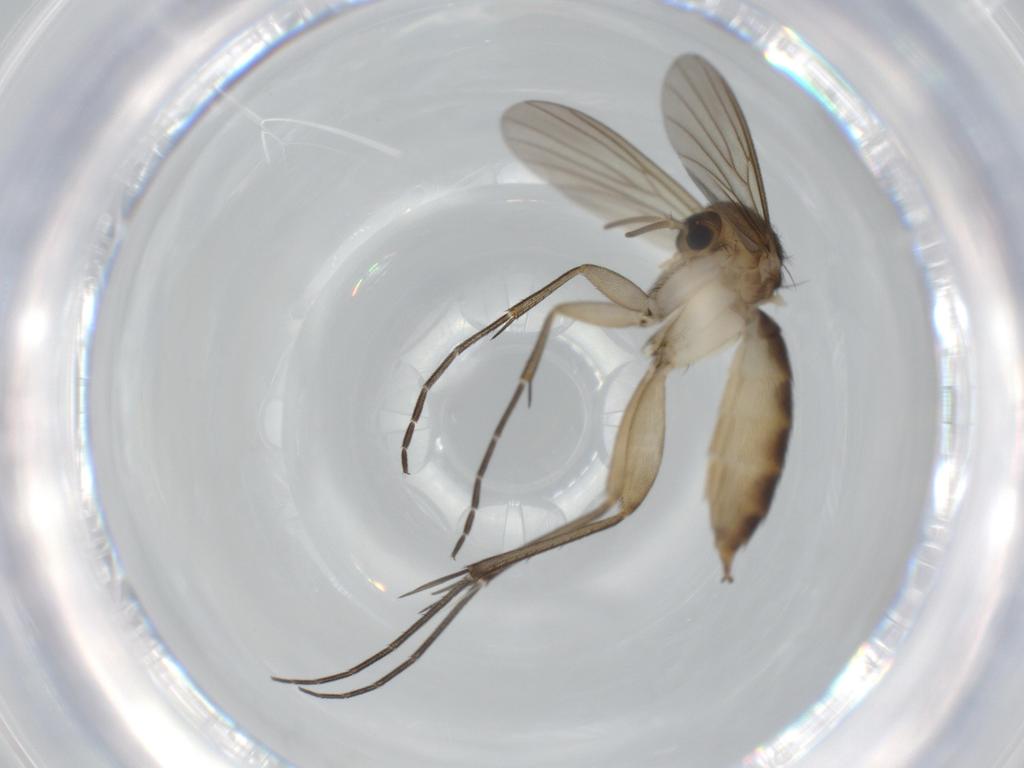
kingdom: Animalia
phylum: Arthropoda
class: Insecta
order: Diptera
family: Mycetophilidae
